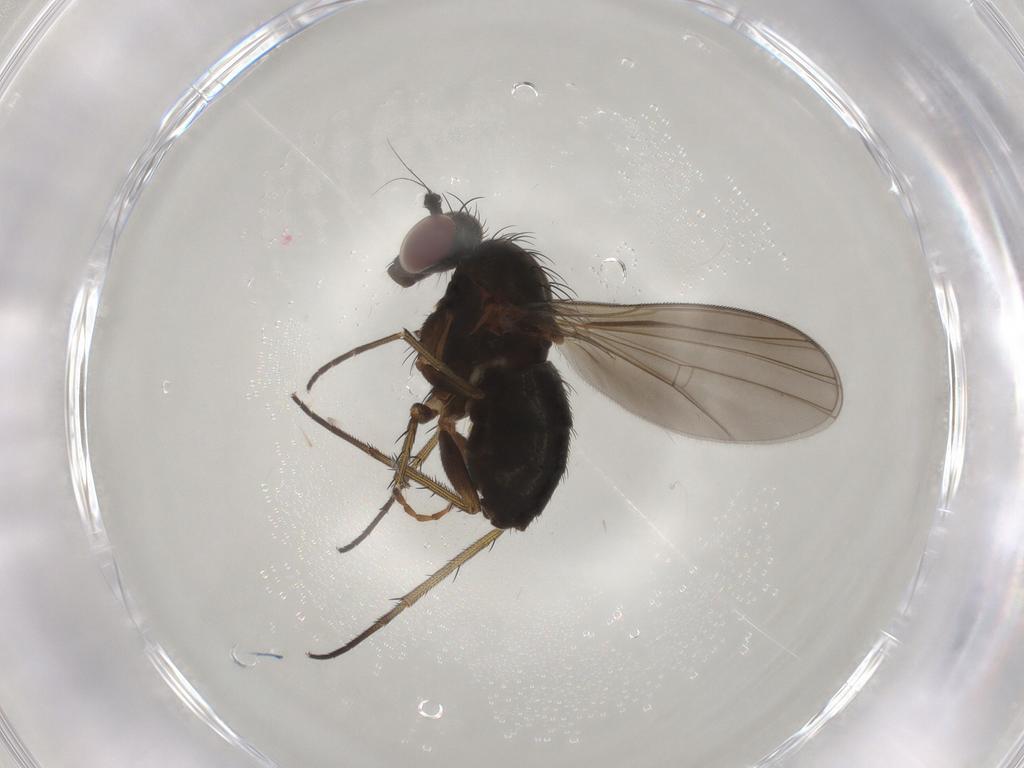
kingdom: Animalia
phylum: Arthropoda
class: Insecta
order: Diptera
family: Dolichopodidae
